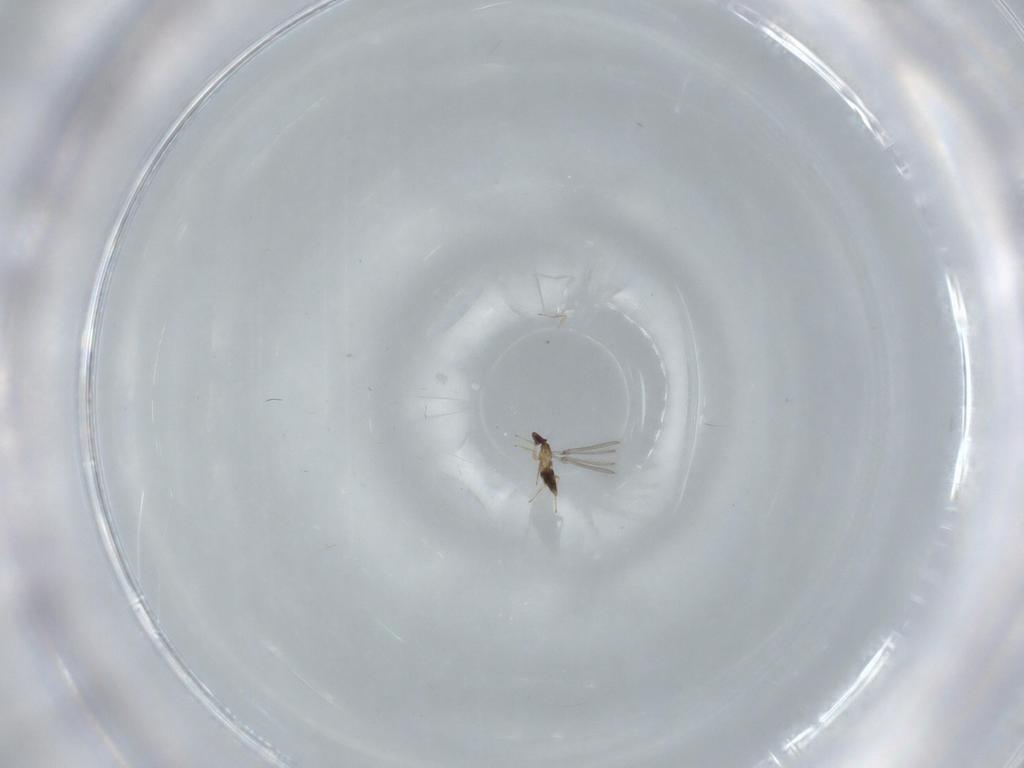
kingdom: Animalia
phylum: Arthropoda
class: Insecta
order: Hymenoptera
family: Mymaridae
